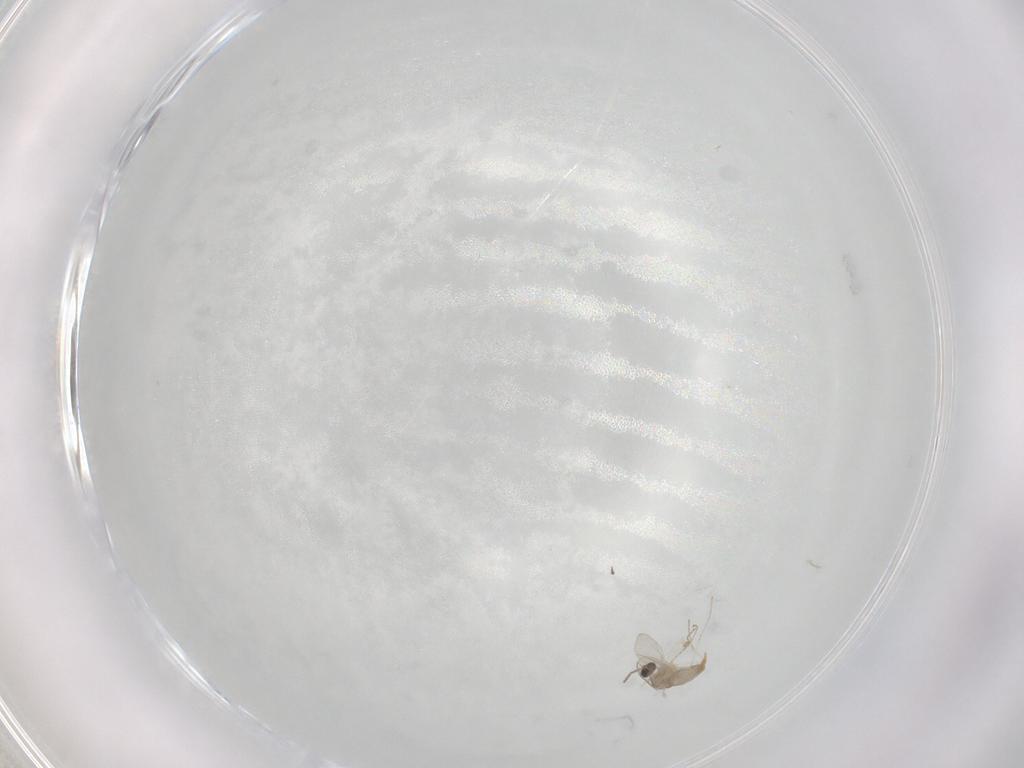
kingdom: Animalia
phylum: Arthropoda
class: Insecta
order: Diptera
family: Ceratopogonidae
